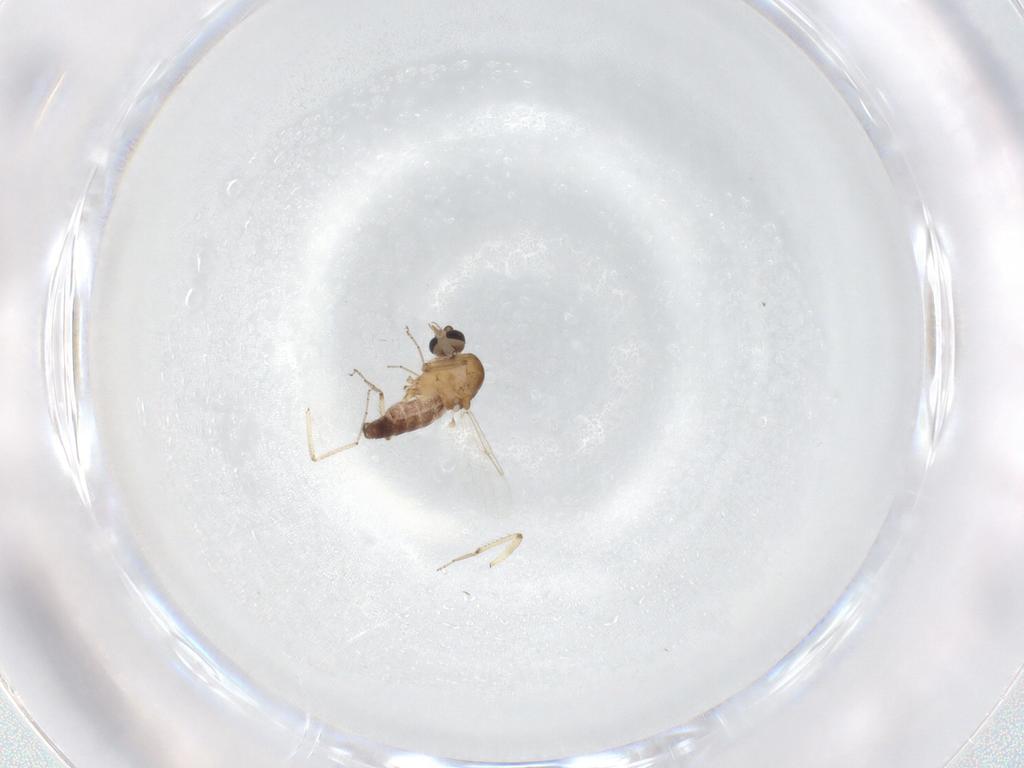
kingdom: Animalia
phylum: Arthropoda
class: Insecta
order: Diptera
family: Ceratopogonidae
